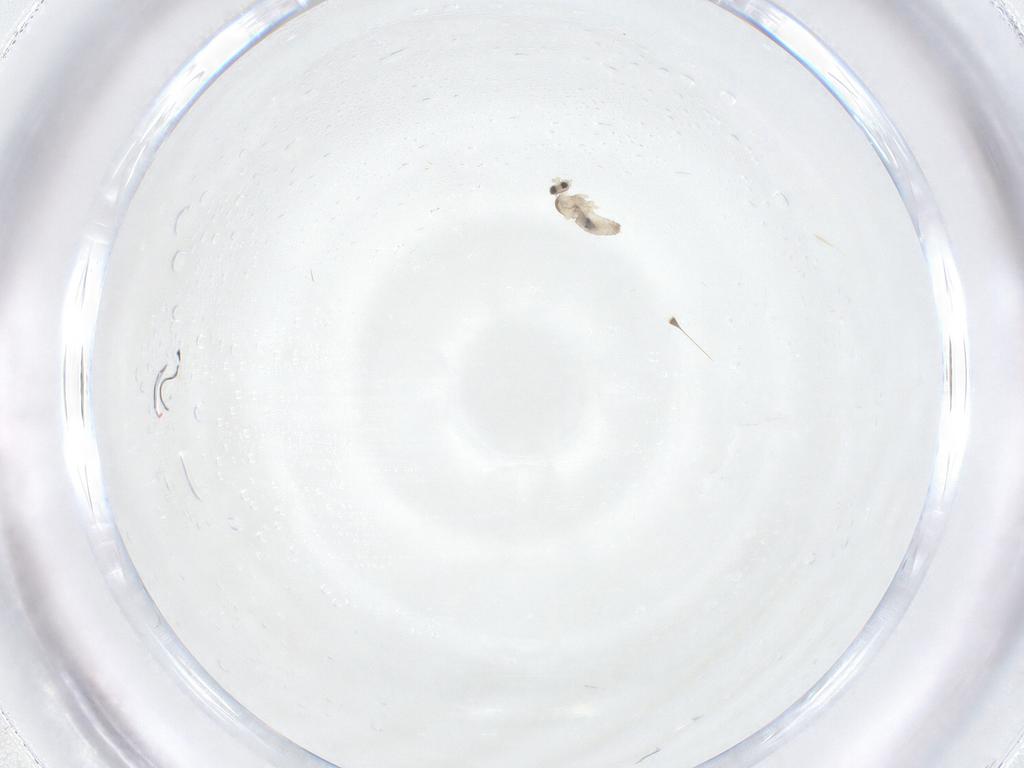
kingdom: Animalia
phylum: Arthropoda
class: Insecta
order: Diptera
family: Cecidomyiidae
